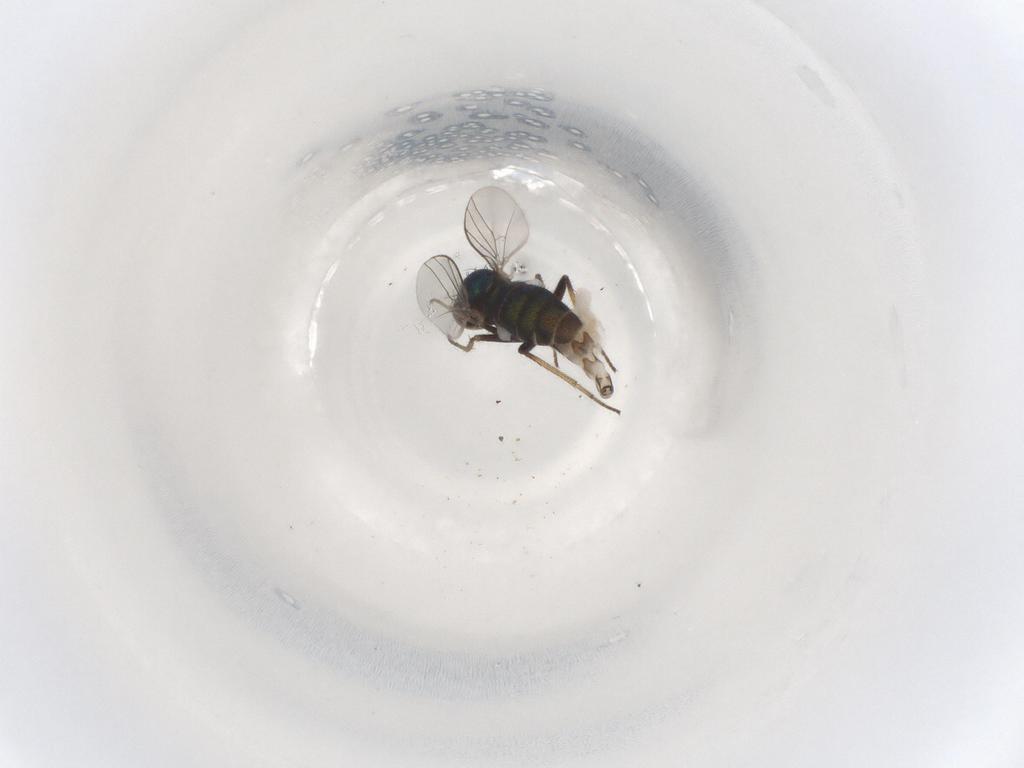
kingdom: Animalia
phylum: Arthropoda
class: Insecta
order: Diptera
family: Dolichopodidae
